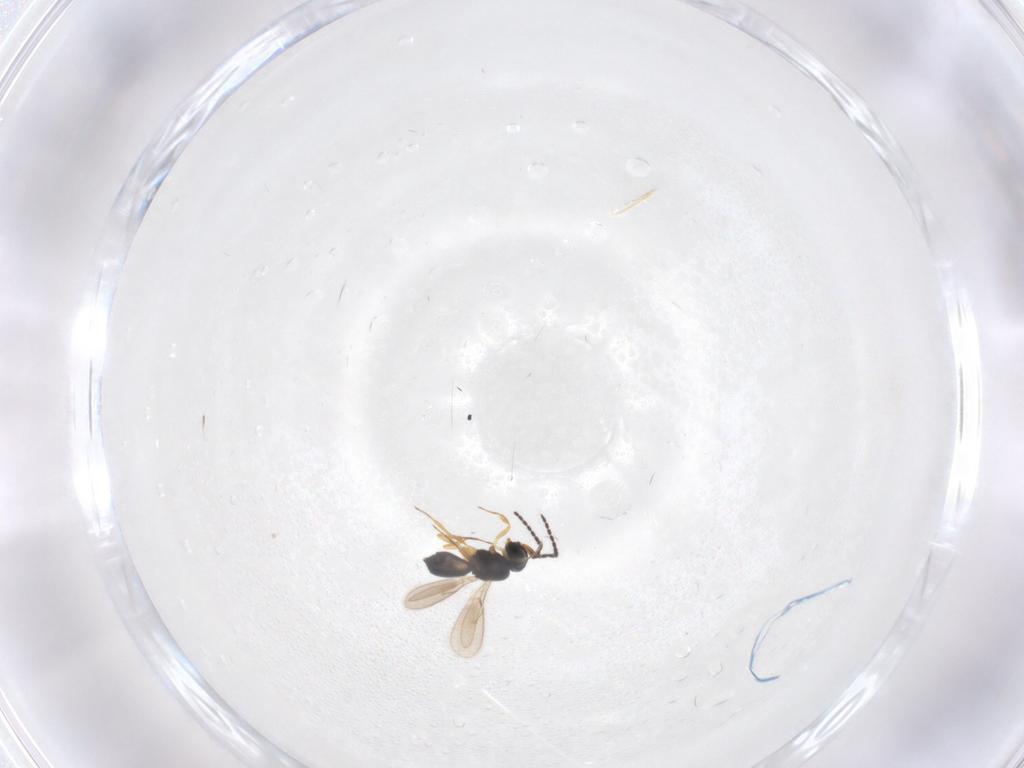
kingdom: Animalia
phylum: Arthropoda
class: Insecta
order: Hymenoptera
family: Scelionidae
